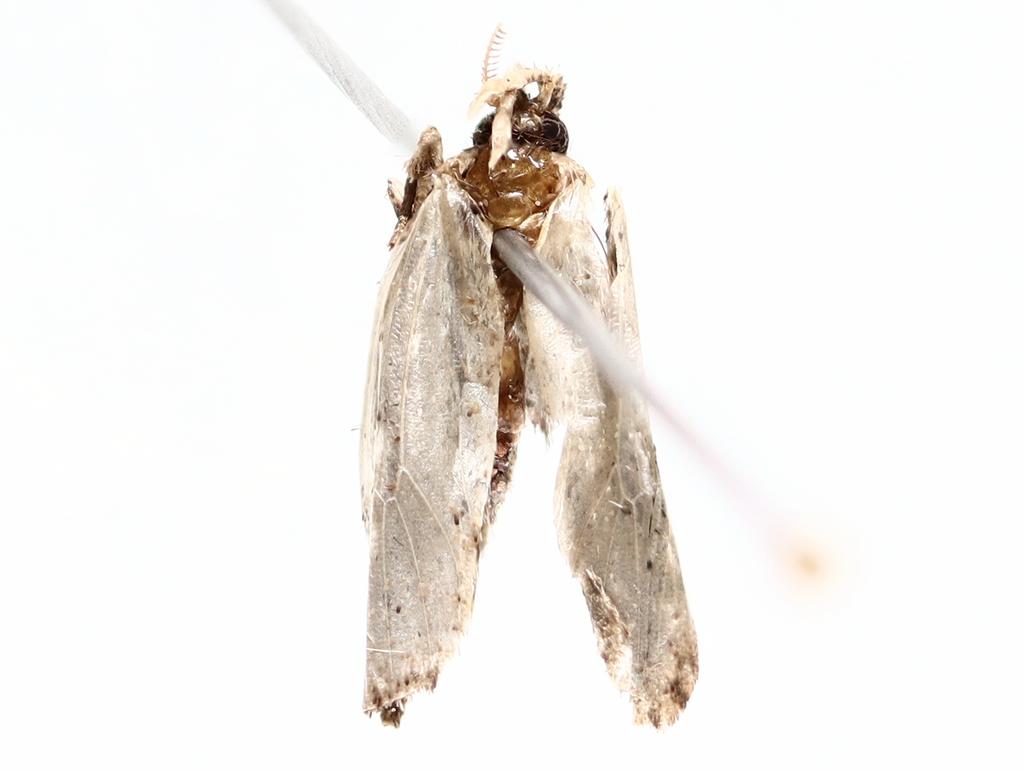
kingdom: Animalia
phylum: Arthropoda
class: Insecta
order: Diptera
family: Chironomidae
